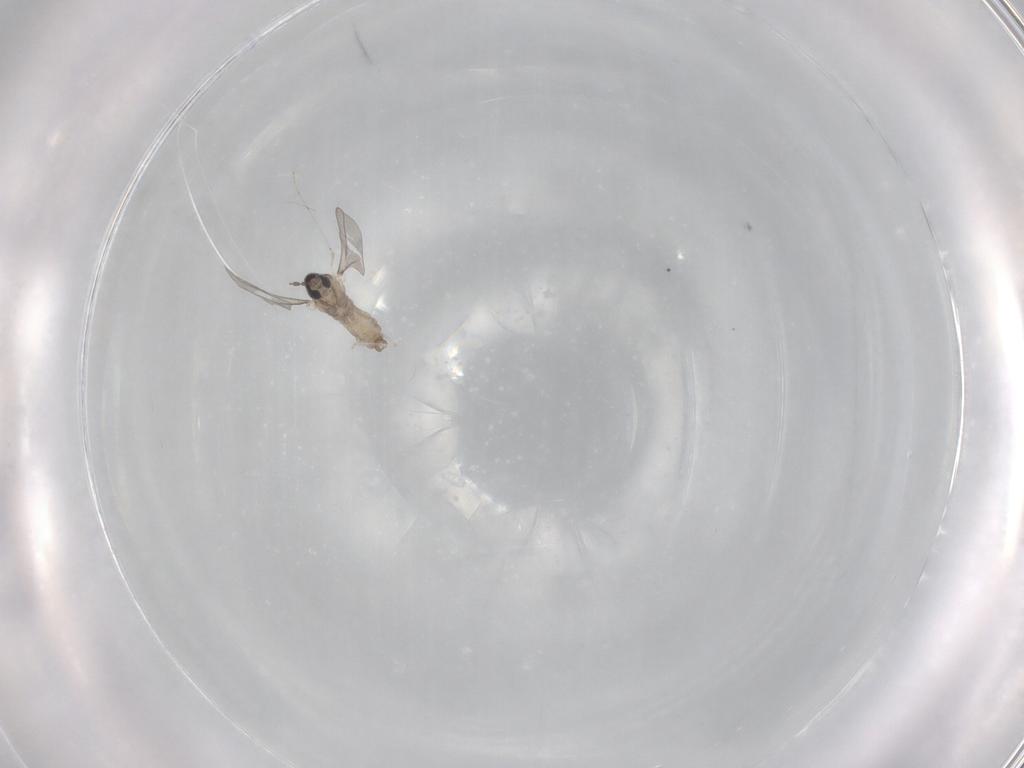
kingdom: Animalia
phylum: Arthropoda
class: Insecta
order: Diptera
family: Cecidomyiidae
